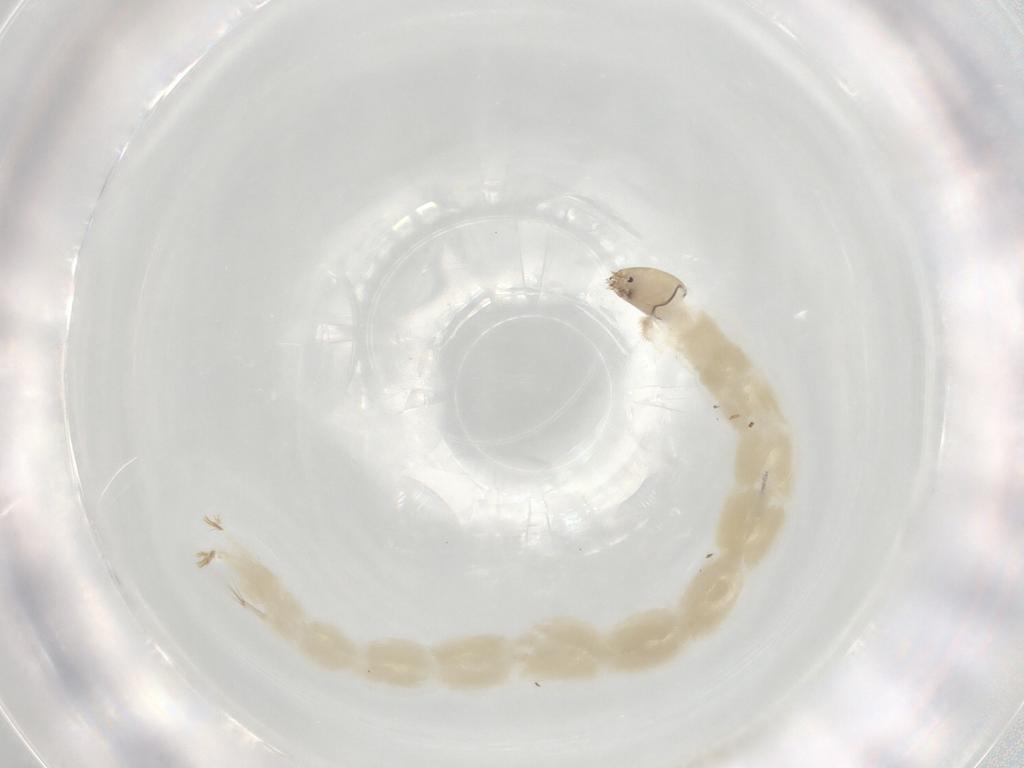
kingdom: Animalia
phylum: Arthropoda
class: Insecta
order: Diptera
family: Chironomidae
